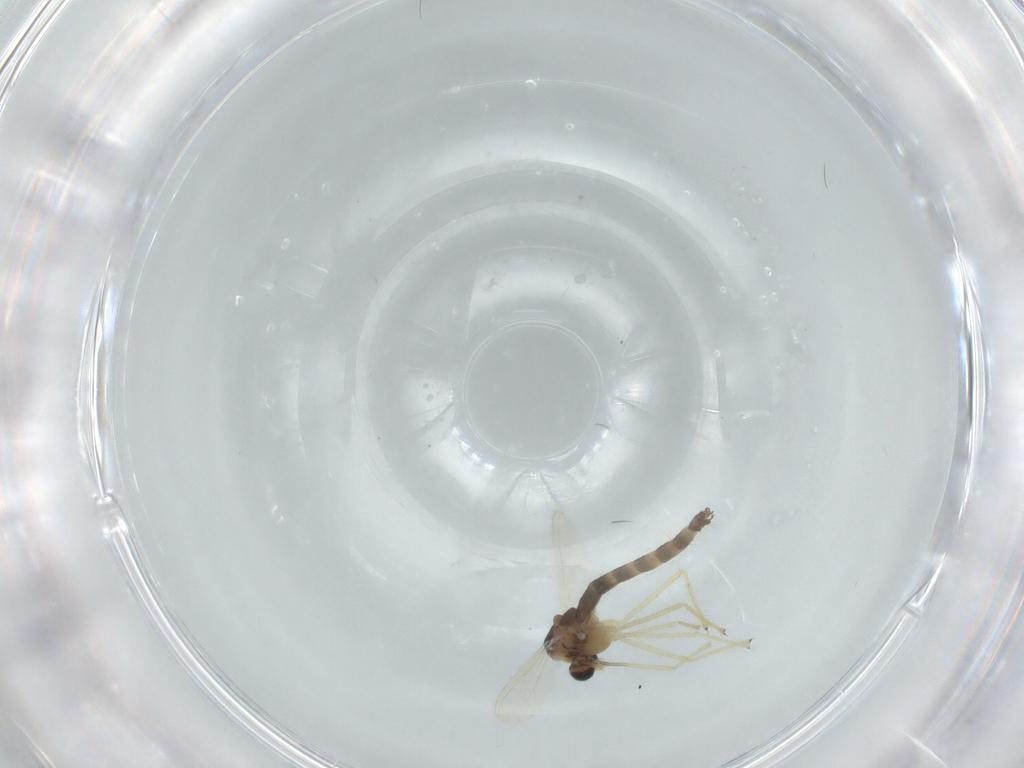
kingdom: Animalia
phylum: Arthropoda
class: Insecta
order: Diptera
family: Chironomidae
